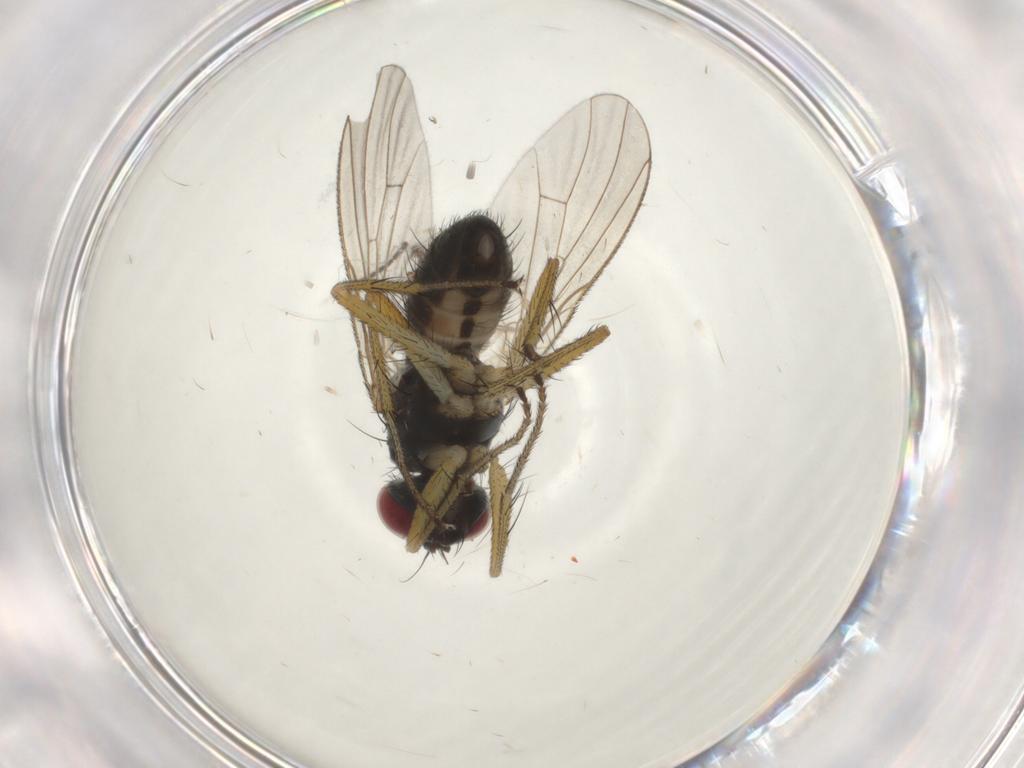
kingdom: Animalia
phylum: Arthropoda
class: Insecta
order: Diptera
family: Muscidae
